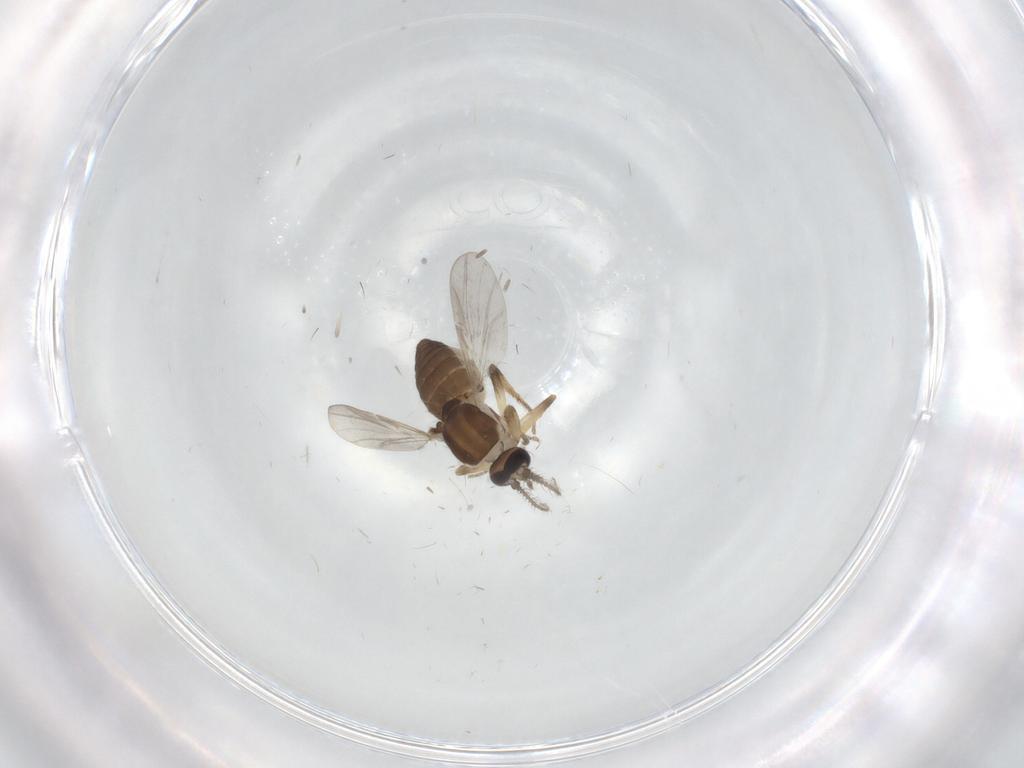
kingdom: Animalia
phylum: Arthropoda
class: Insecta
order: Diptera
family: Ceratopogonidae
